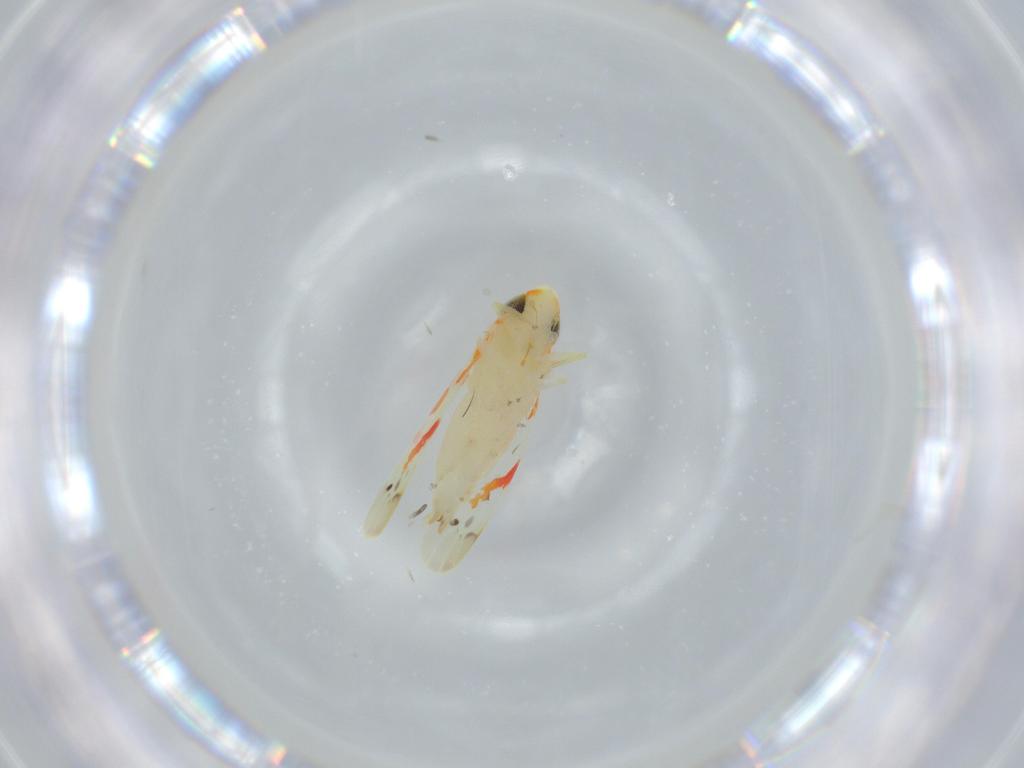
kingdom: Animalia
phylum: Arthropoda
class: Insecta
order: Hemiptera
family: Cicadellidae
